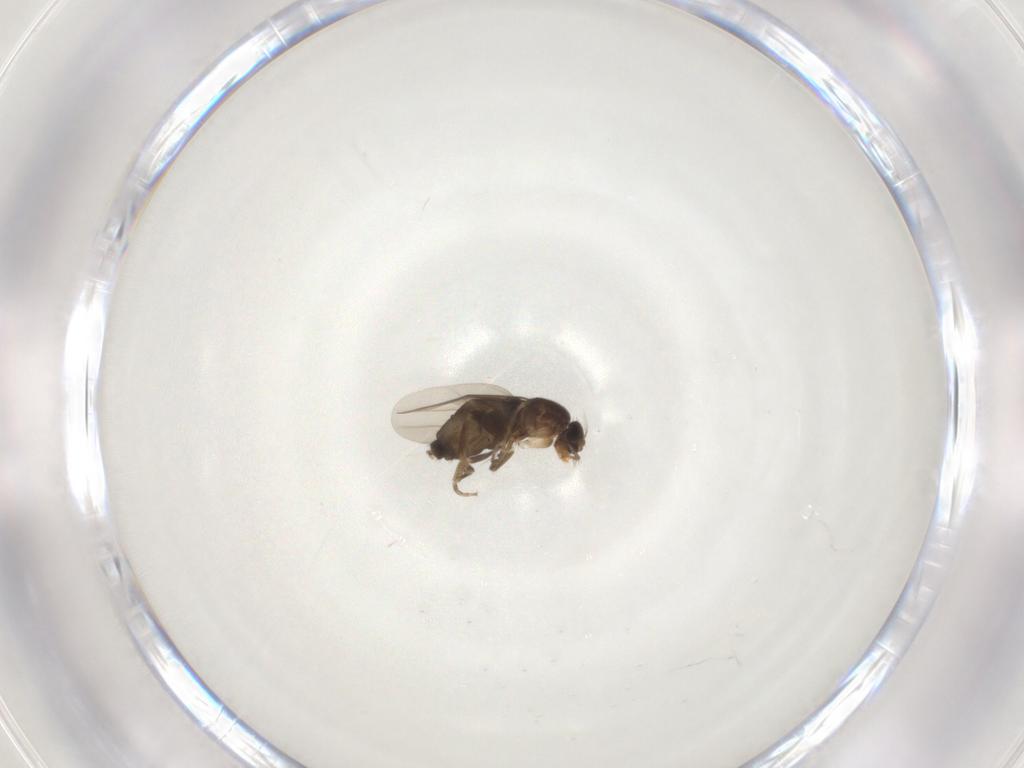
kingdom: Animalia
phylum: Arthropoda
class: Insecta
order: Diptera
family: Phoridae
